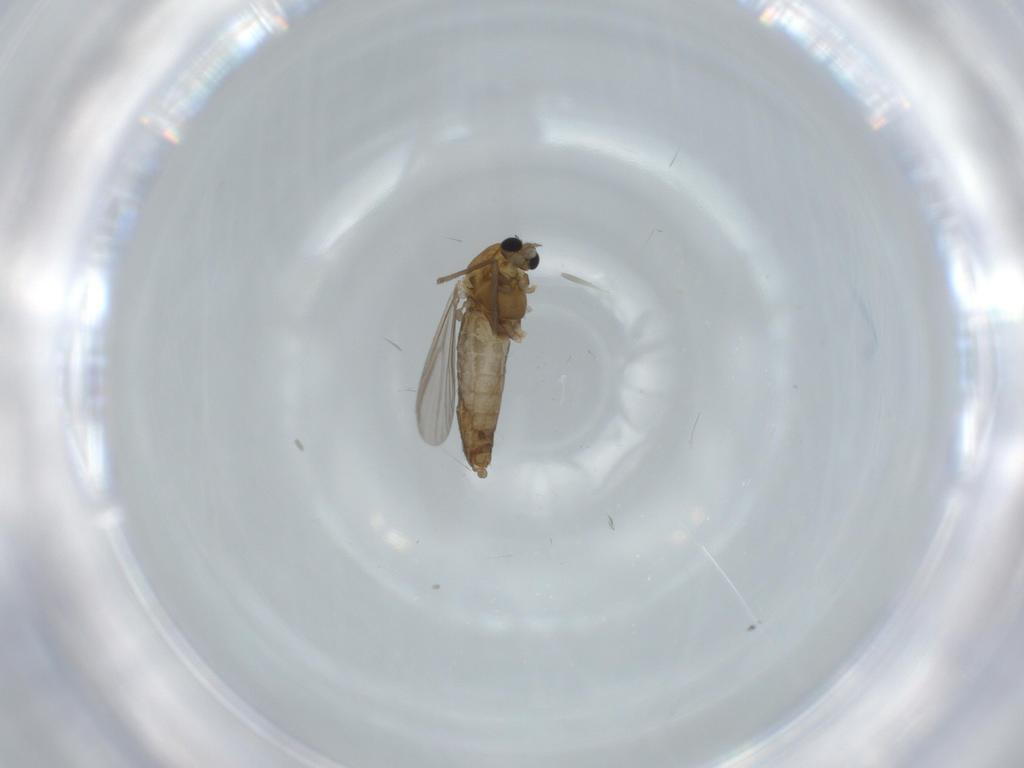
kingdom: Animalia
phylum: Arthropoda
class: Insecta
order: Diptera
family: Chironomidae
